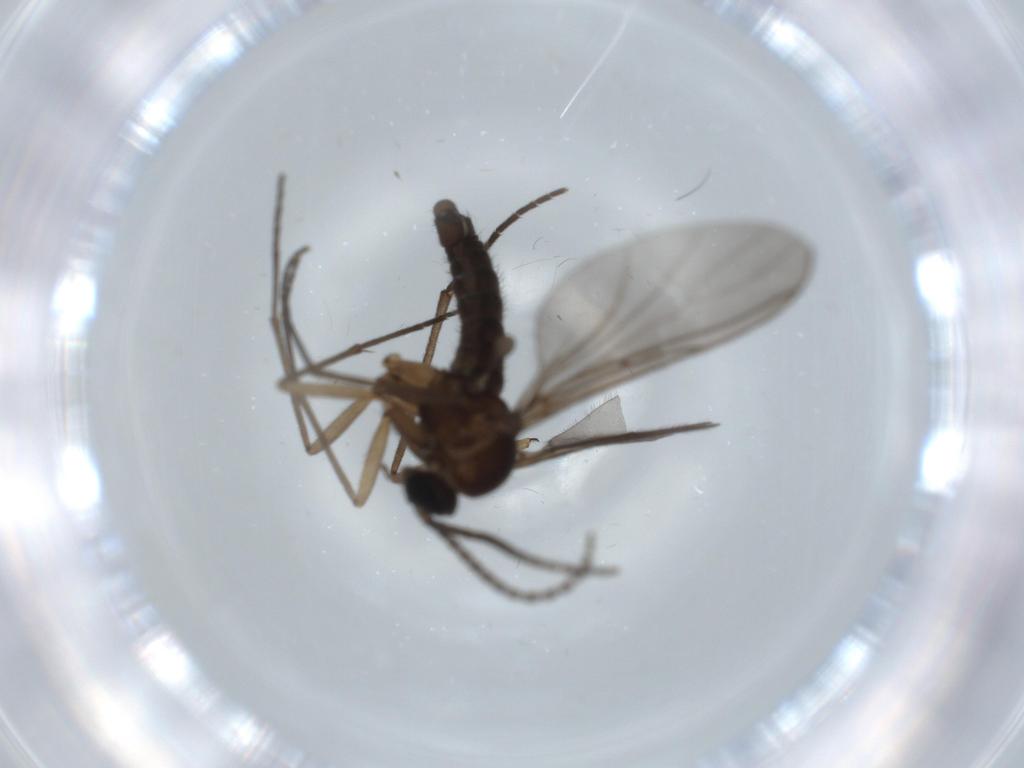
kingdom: Animalia
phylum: Arthropoda
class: Insecta
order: Diptera
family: Sciaridae
